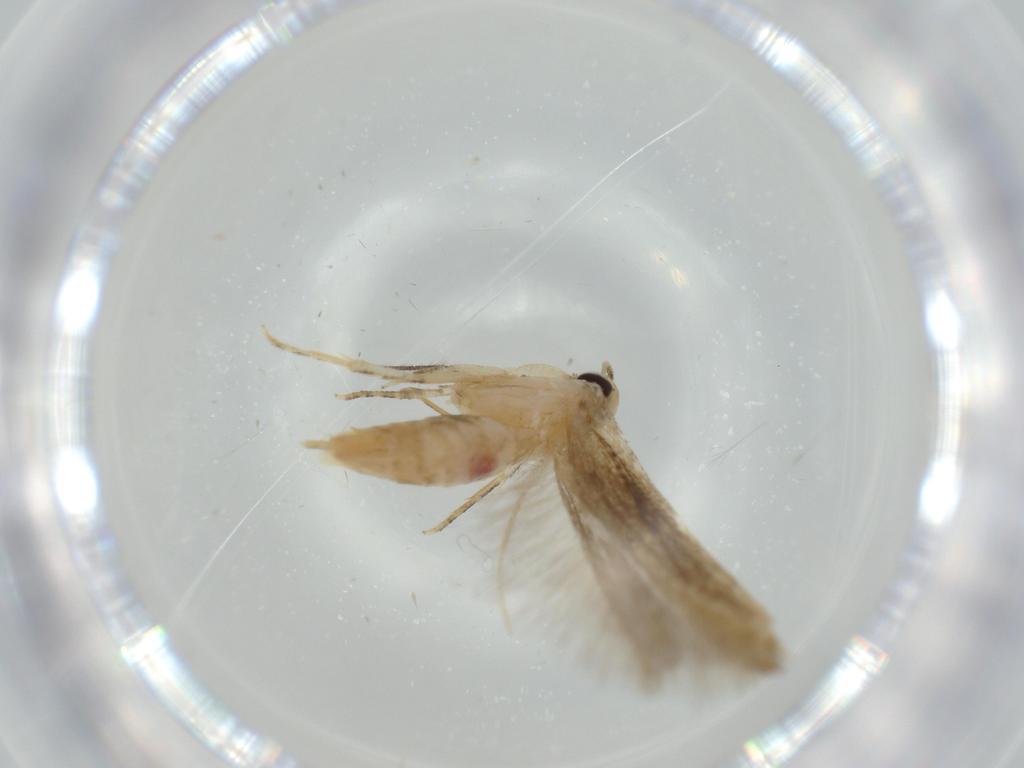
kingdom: Animalia
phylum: Arthropoda
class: Insecta
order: Lepidoptera
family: Cosmopterigidae
